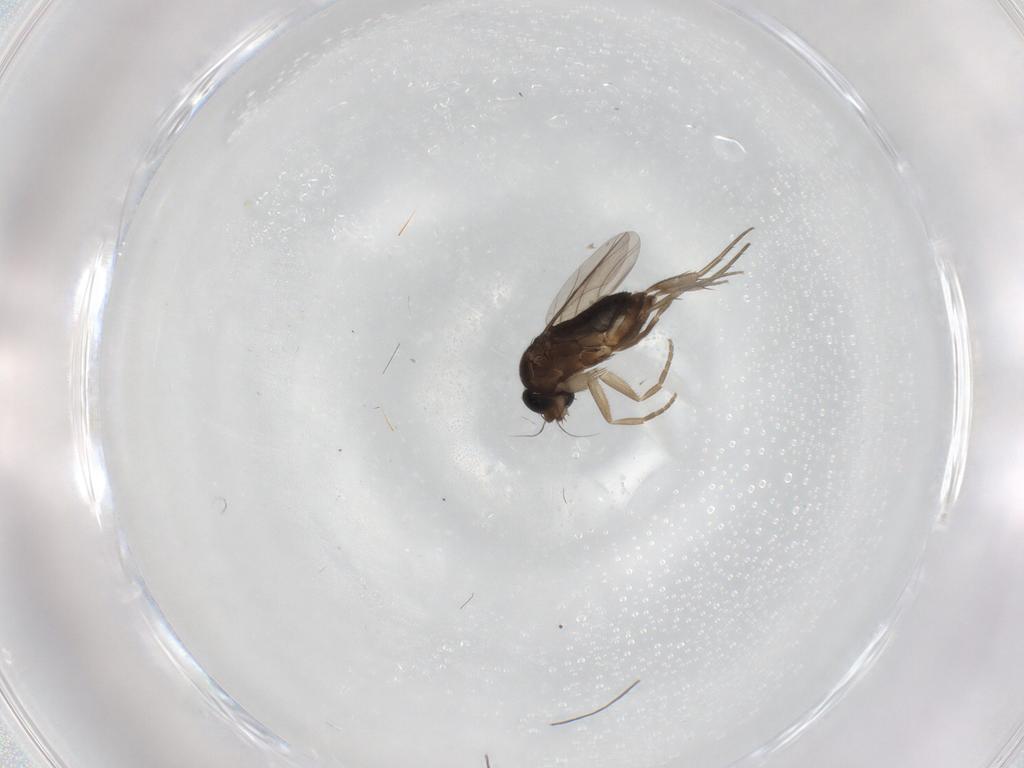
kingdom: Animalia
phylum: Arthropoda
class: Insecta
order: Diptera
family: Phoridae
